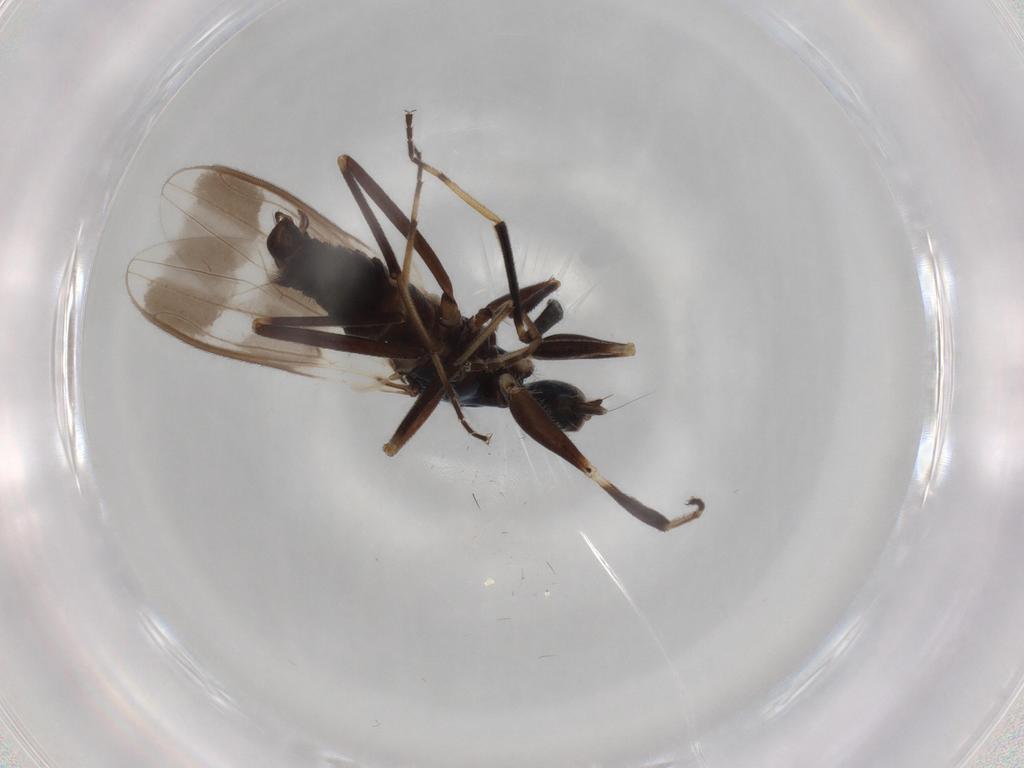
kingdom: Animalia
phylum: Arthropoda
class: Insecta
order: Diptera
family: Hybotidae
